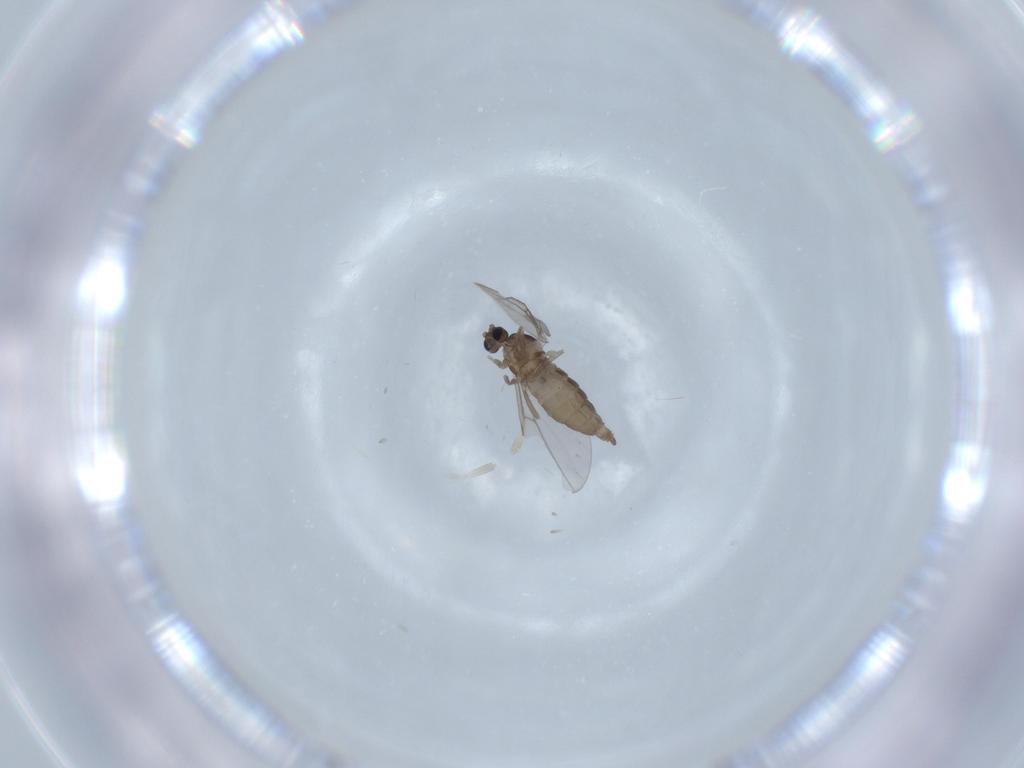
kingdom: Animalia
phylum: Arthropoda
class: Insecta
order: Diptera
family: Cecidomyiidae
